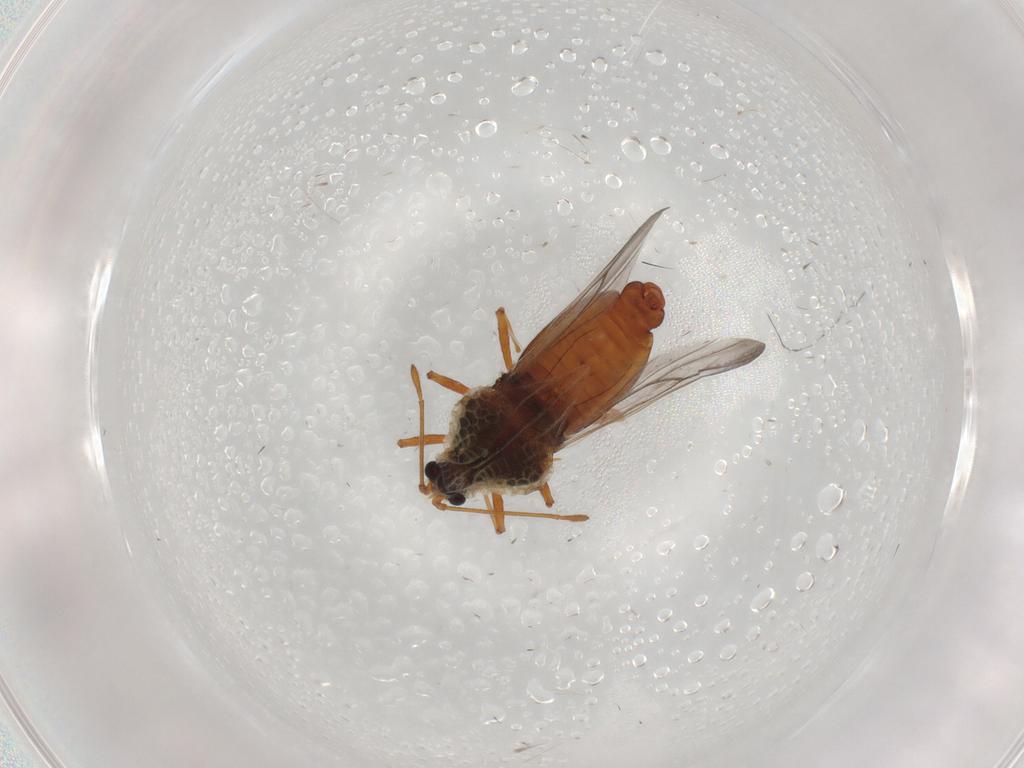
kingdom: Animalia
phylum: Arthropoda
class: Insecta
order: Hemiptera
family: Tingidae
